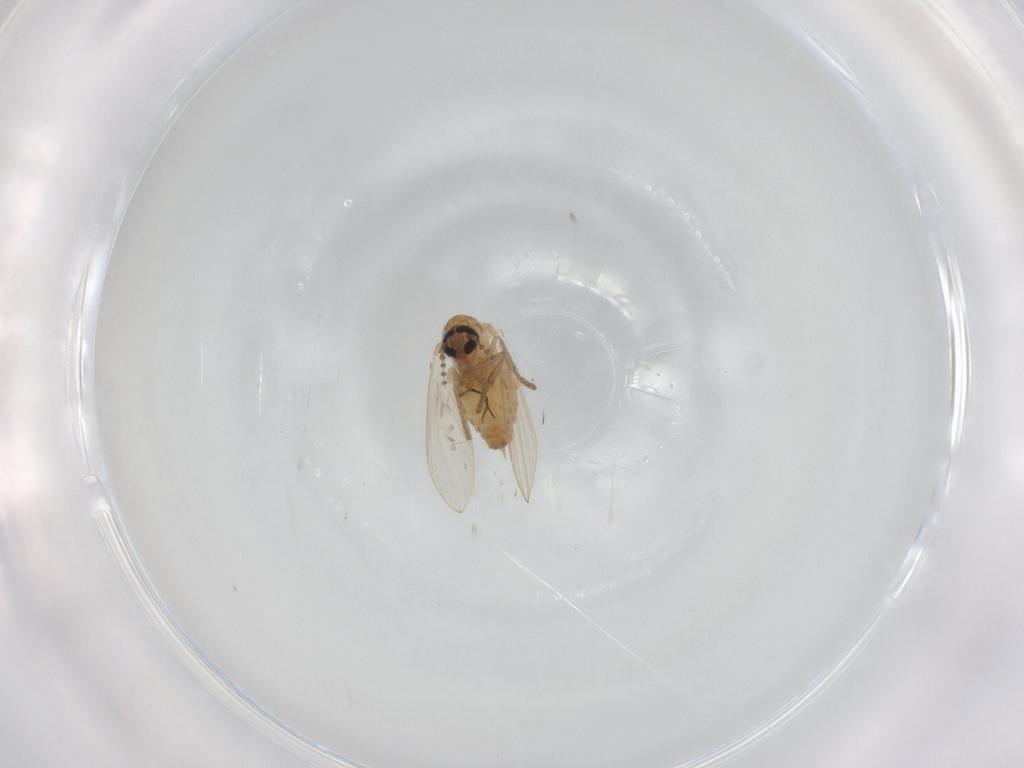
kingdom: Animalia
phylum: Arthropoda
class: Insecta
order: Diptera
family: Psychodidae
